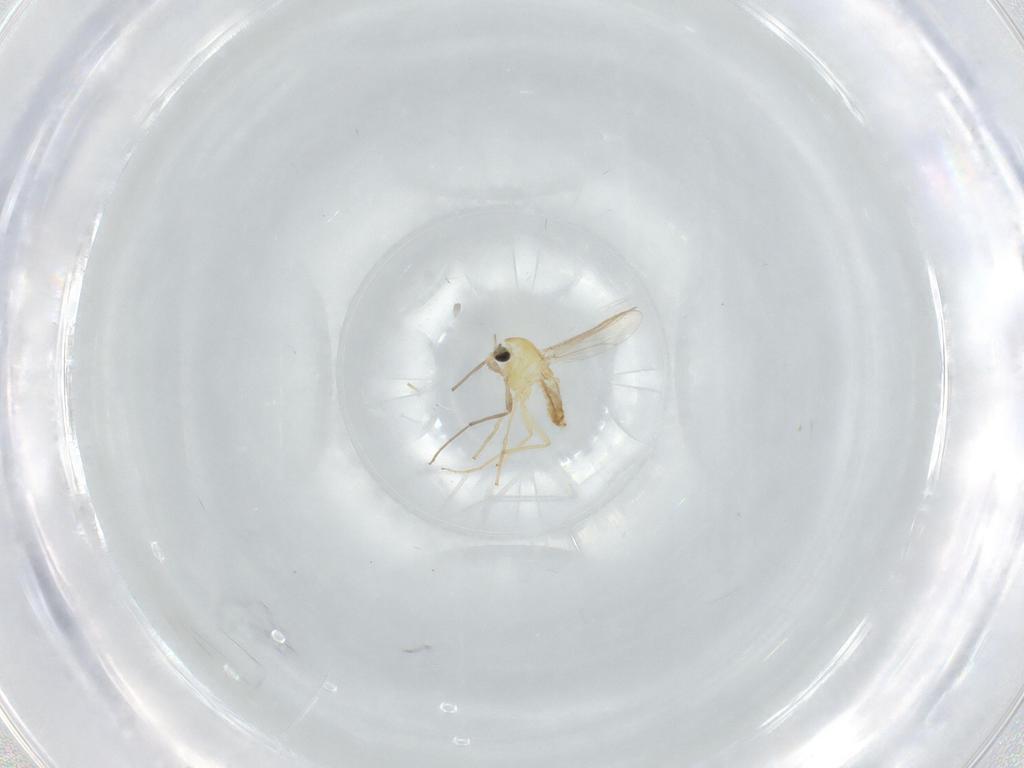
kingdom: Animalia
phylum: Arthropoda
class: Insecta
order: Diptera
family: Chironomidae
